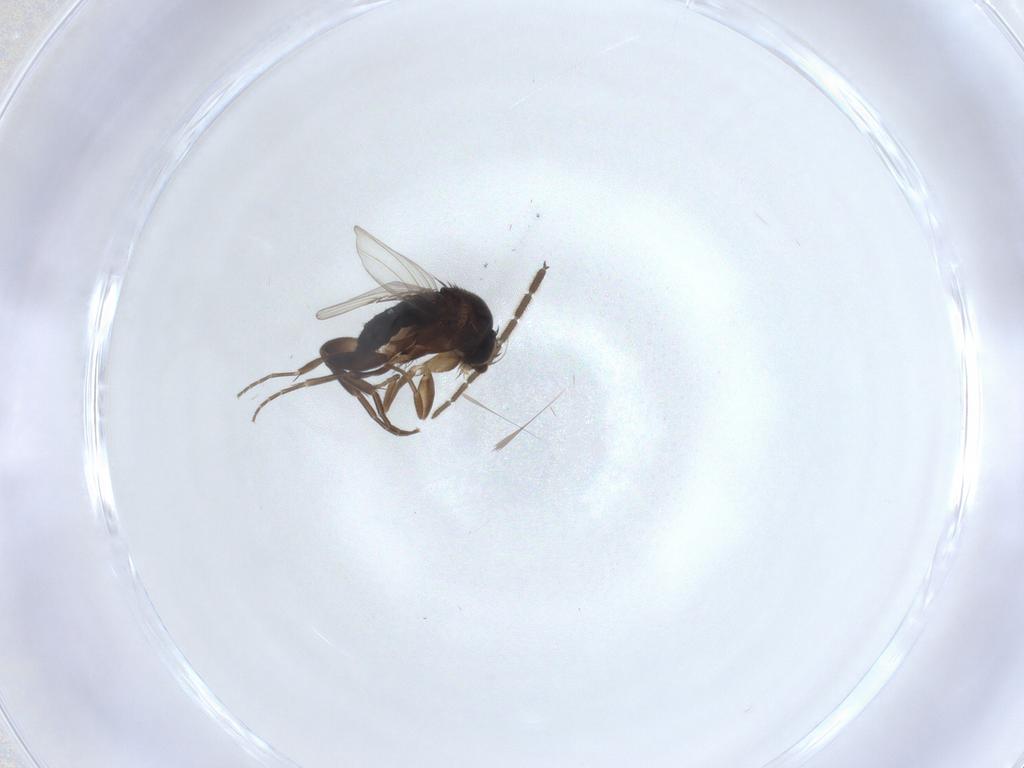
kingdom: Animalia
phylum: Arthropoda
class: Insecta
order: Diptera
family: Phoridae
